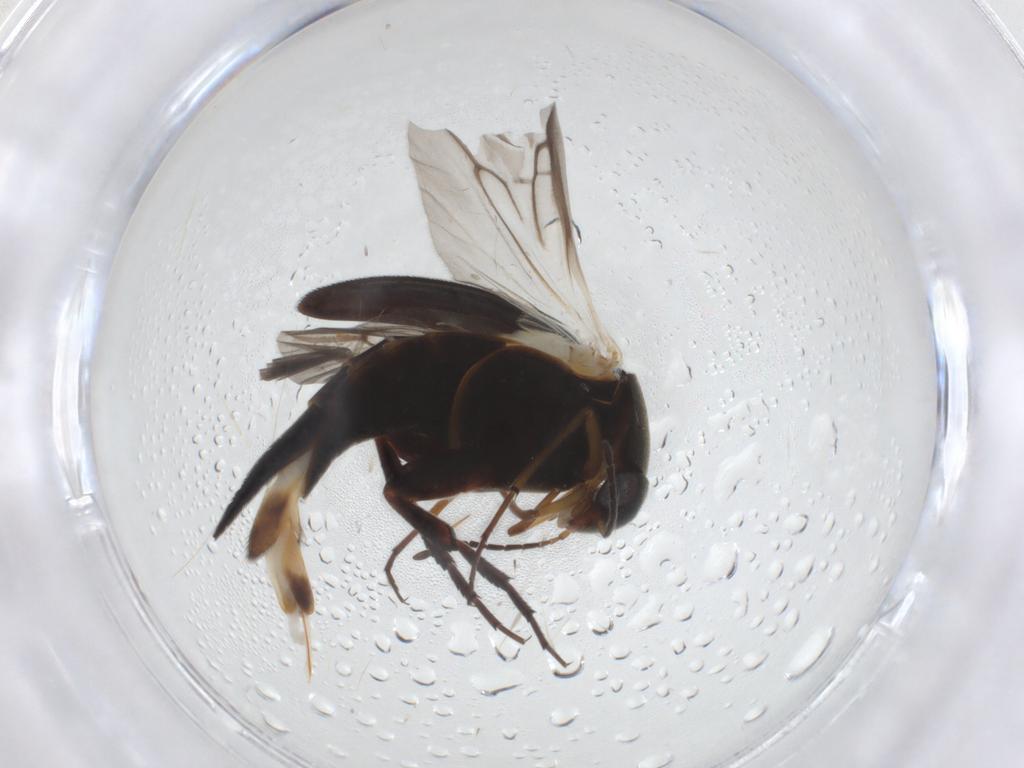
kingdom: Animalia
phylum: Arthropoda
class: Insecta
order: Coleoptera
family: Mordellidae
